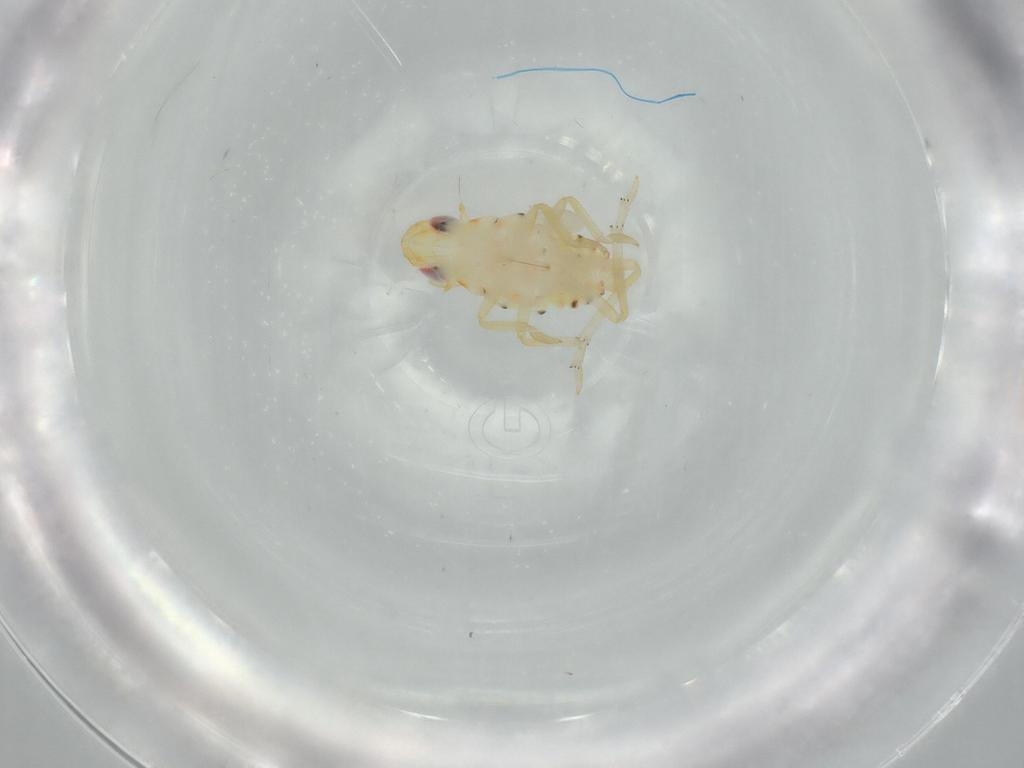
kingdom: Animalia
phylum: Arthropoda
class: Insecta
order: Hemiptera
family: Tropiduchidae
